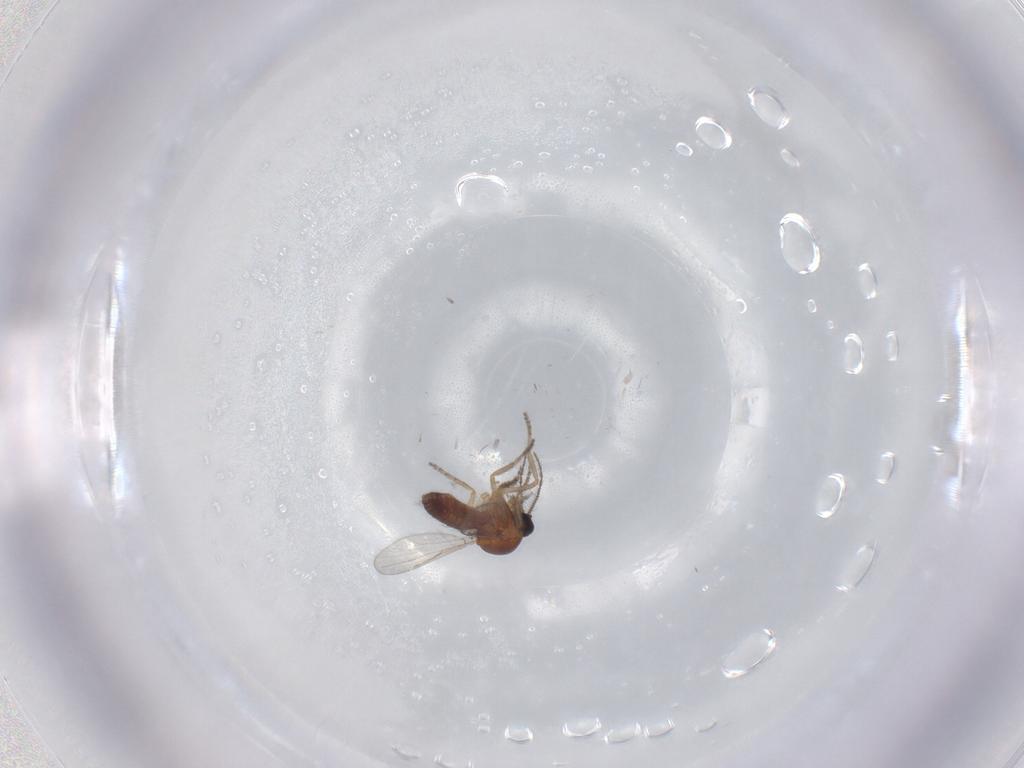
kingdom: Animalia
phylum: Arthropoda
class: Insecta
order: Diptera
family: Ceratopogonidae
